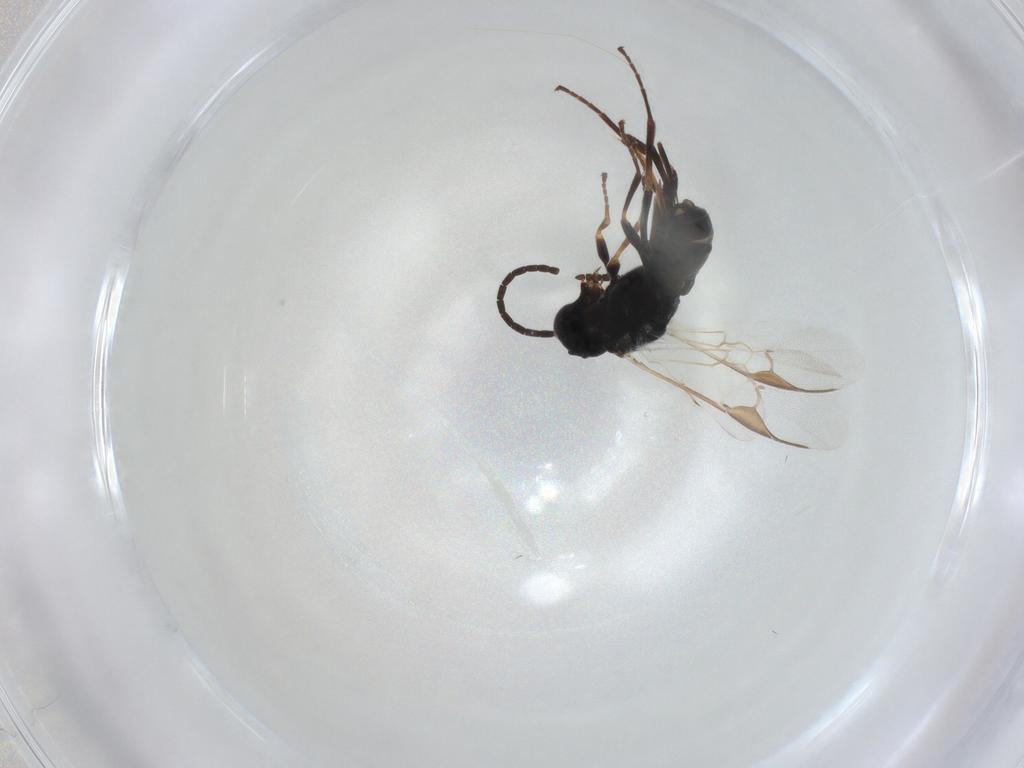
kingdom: Animalia
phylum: Arthropoda
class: Insecta
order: Hymenoptera
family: Braconidae
